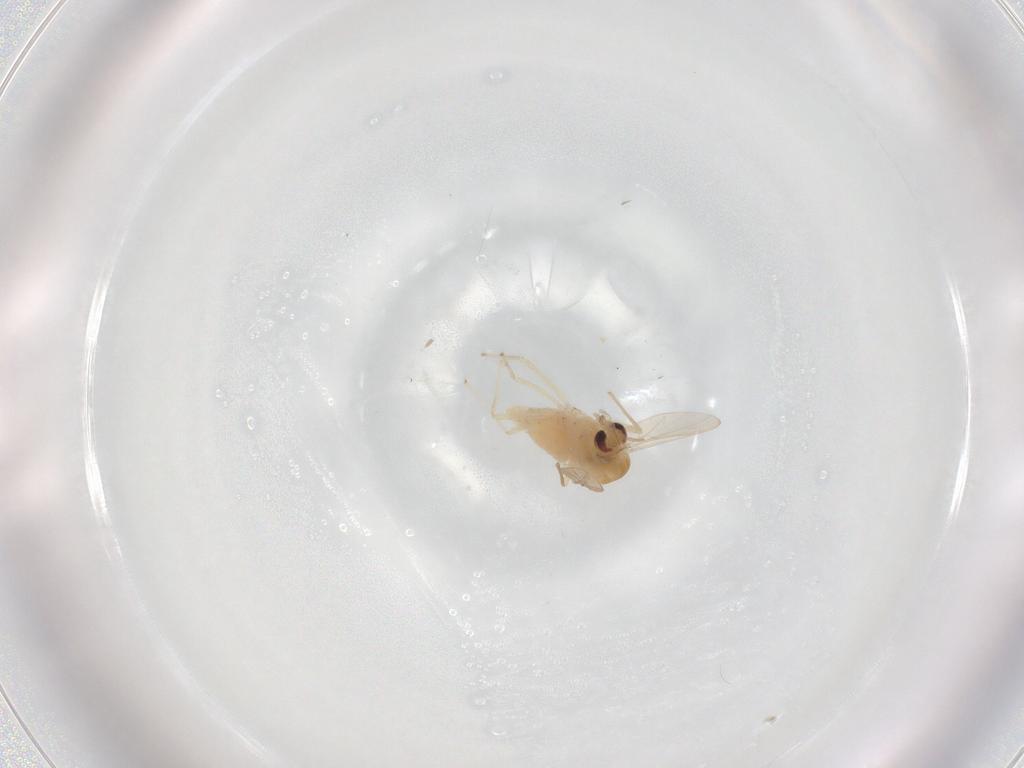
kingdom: Animalia
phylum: Arthropoda
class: Insecta
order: Diptera
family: Chironomidae
